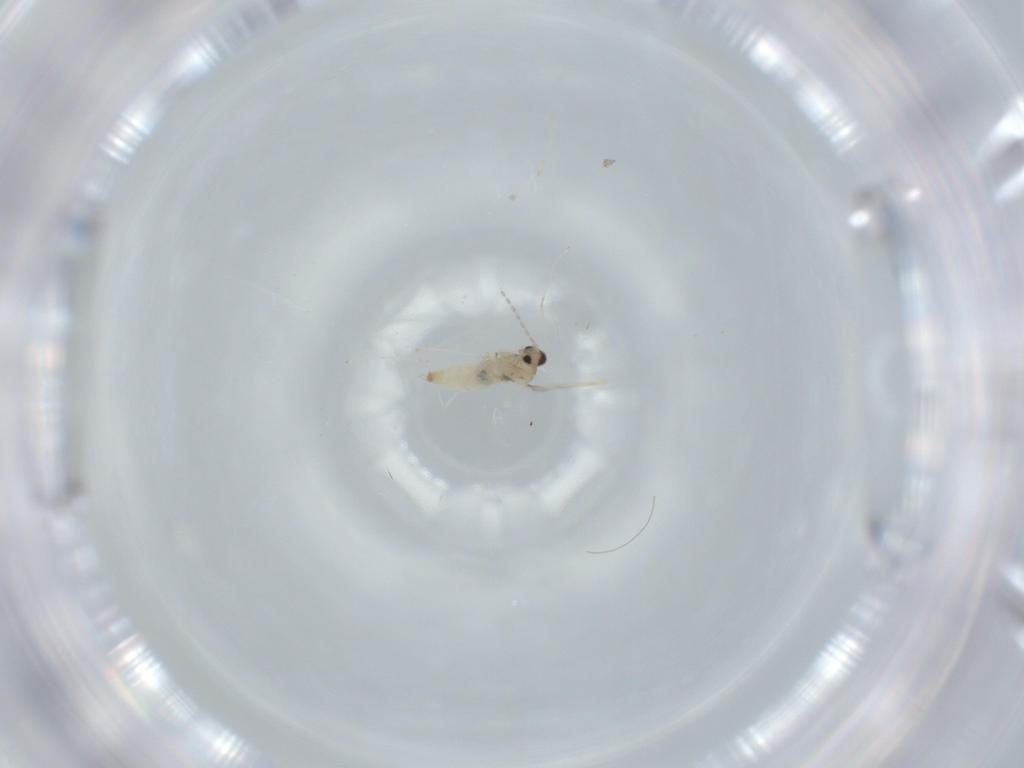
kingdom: Animalia
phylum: Arthropoda
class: Insecta
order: Diptera
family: Cecidomyiidae
